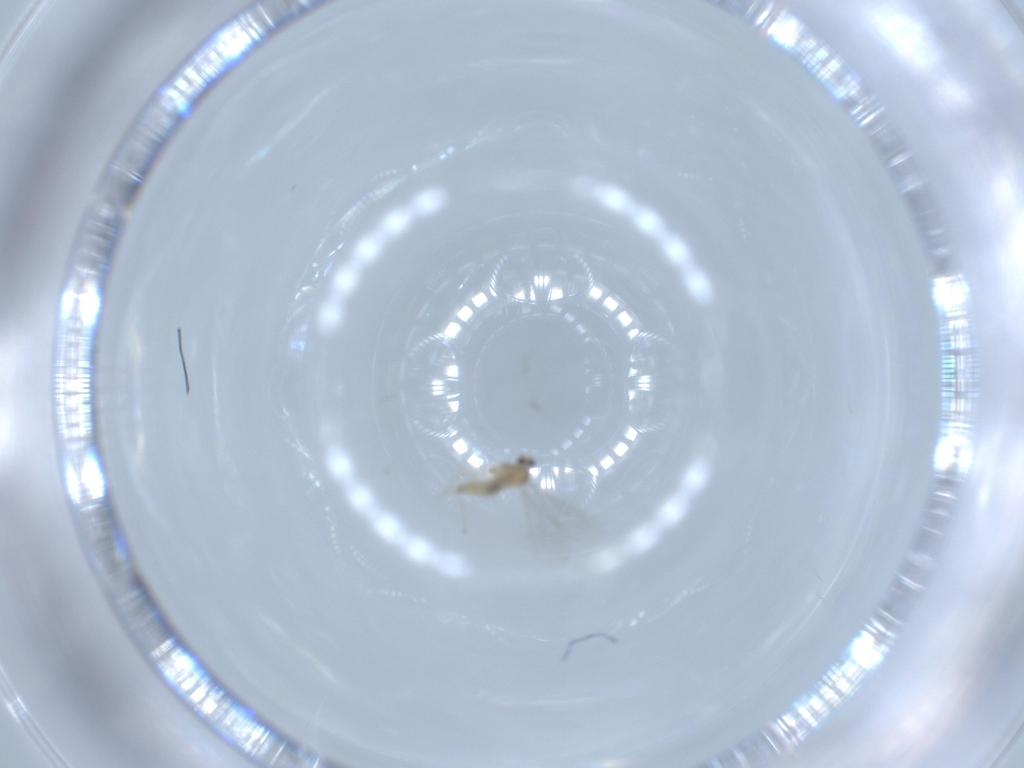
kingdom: Animalia
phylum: Arthropoda
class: Insecta
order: Diptera
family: Cecidomyiidae
